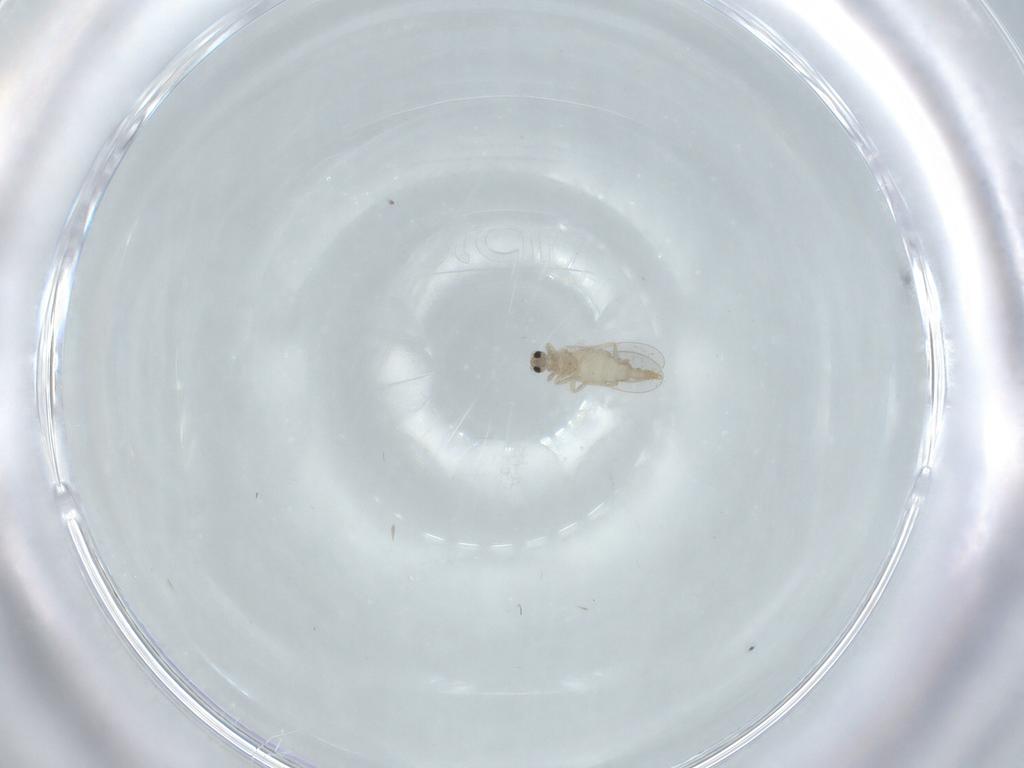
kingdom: Animalia
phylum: Arthropoda
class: Insecta
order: Diptera
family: Cecidomyiidae
